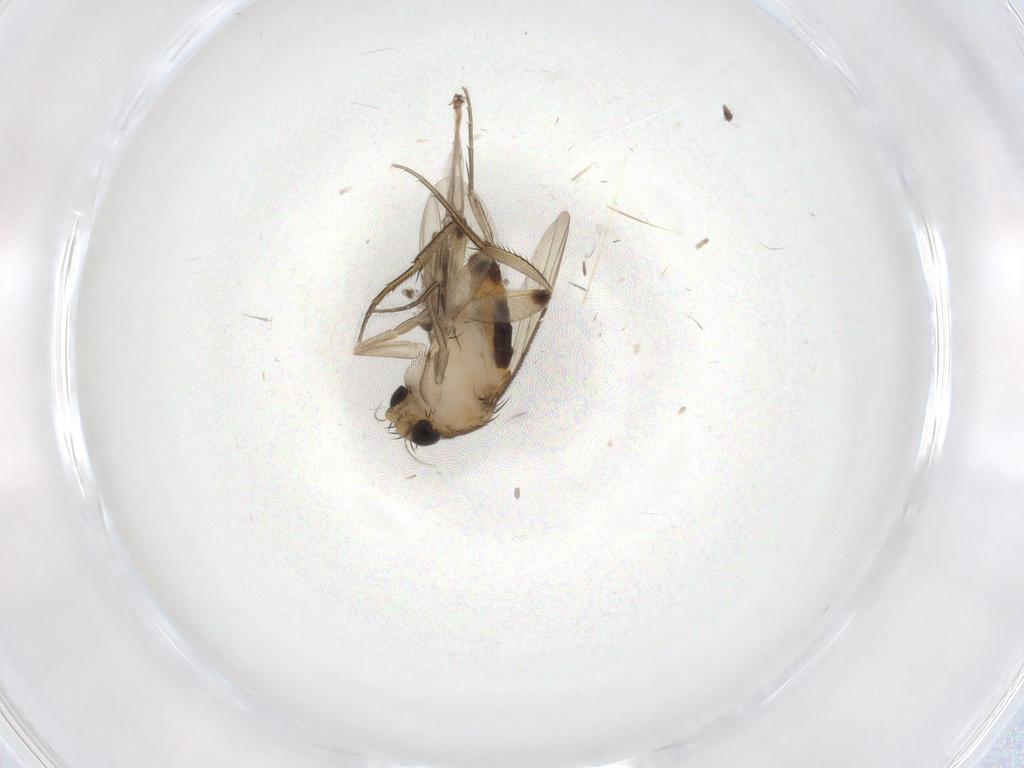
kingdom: Animalia
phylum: Arthropoda
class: Insecta
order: Diptera
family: Phoridae
